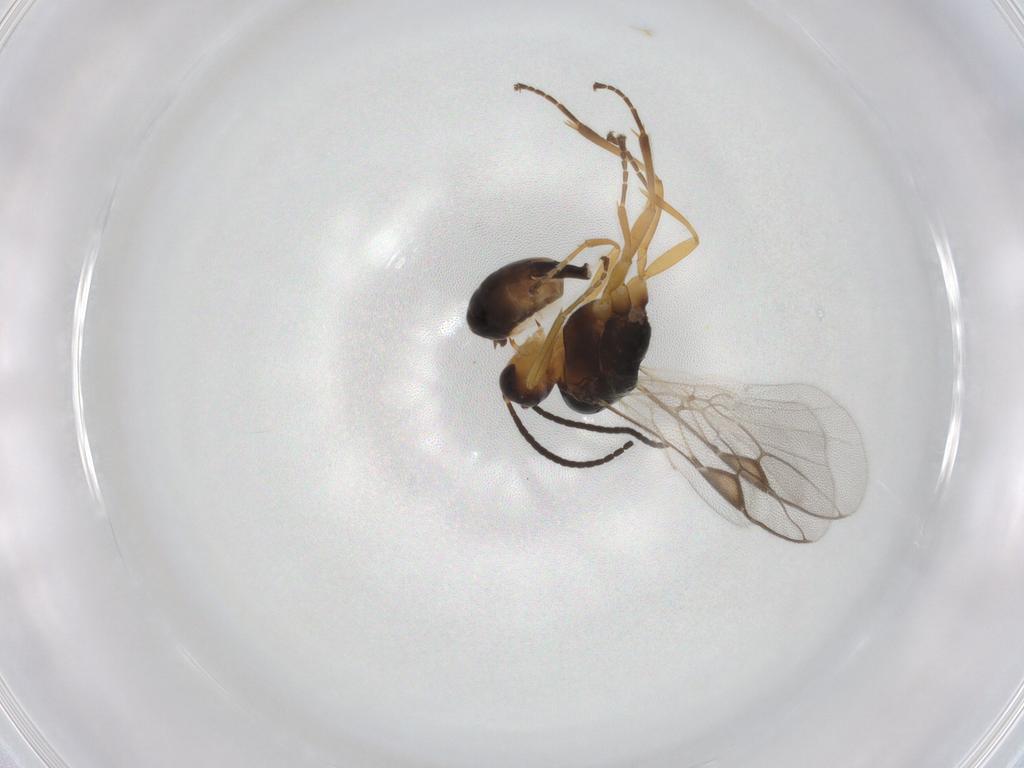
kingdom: Animalia
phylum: Arthropoda
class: Insecta
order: Hymenoptera
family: Braconidae
